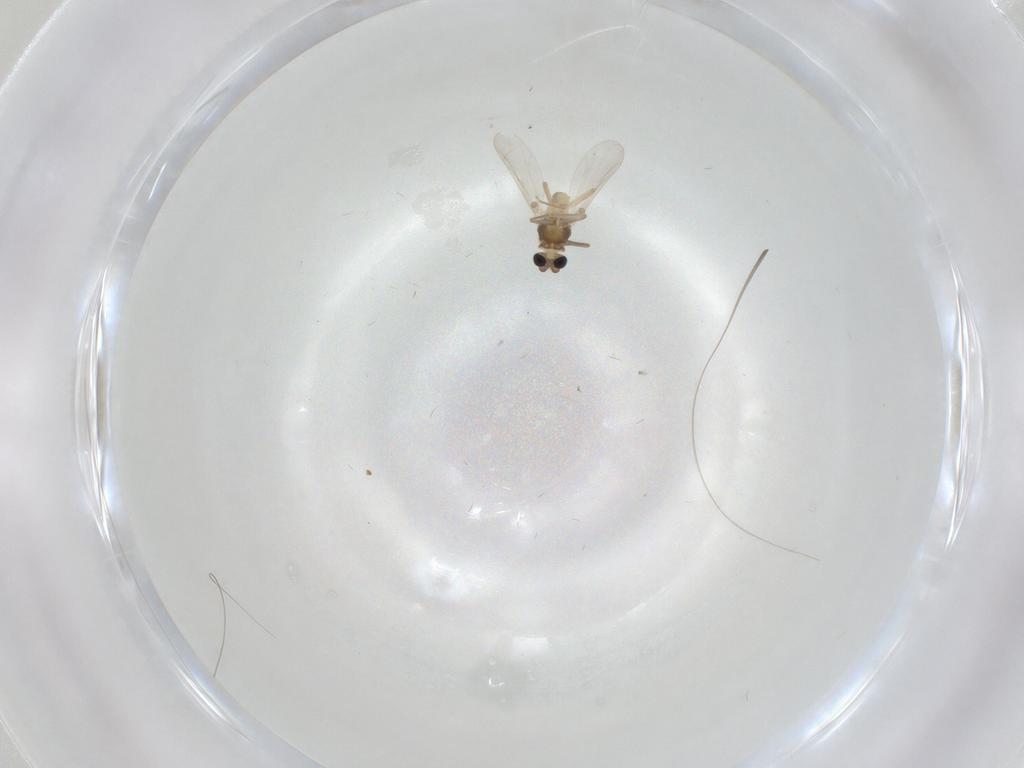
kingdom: Animalia
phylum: Arthropoda
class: Insecta
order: Diptera
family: Chironomidae
